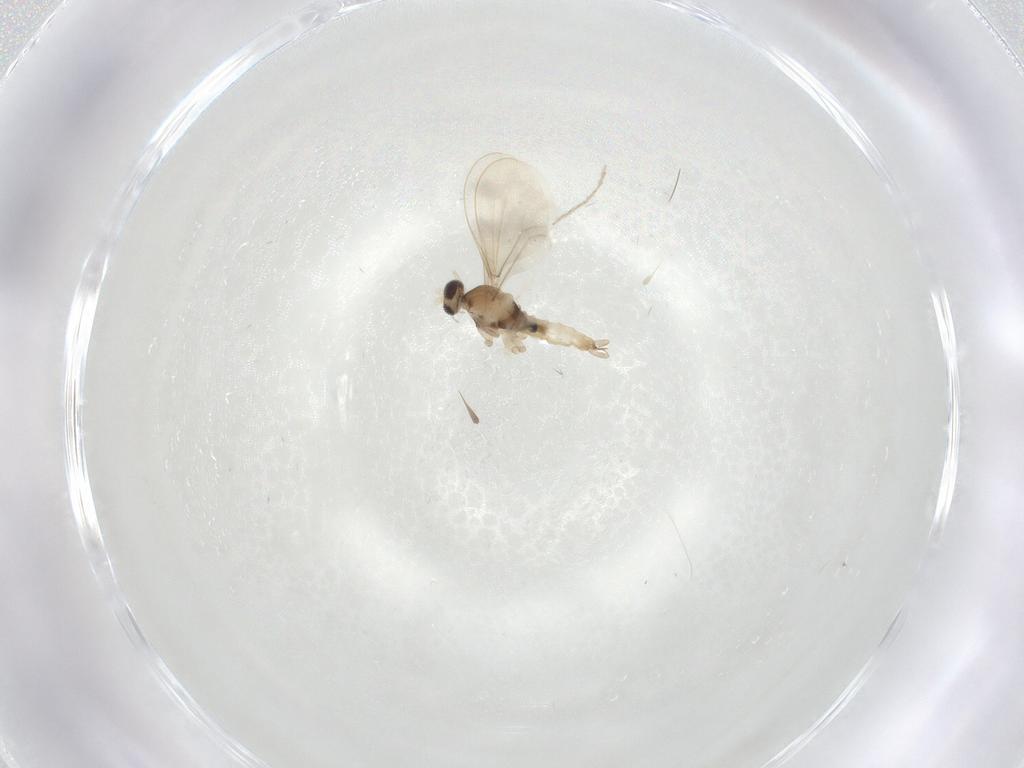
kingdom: Animalia
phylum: Arthropoda
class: Insecta
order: Diptera
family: Cecidomyiidae
